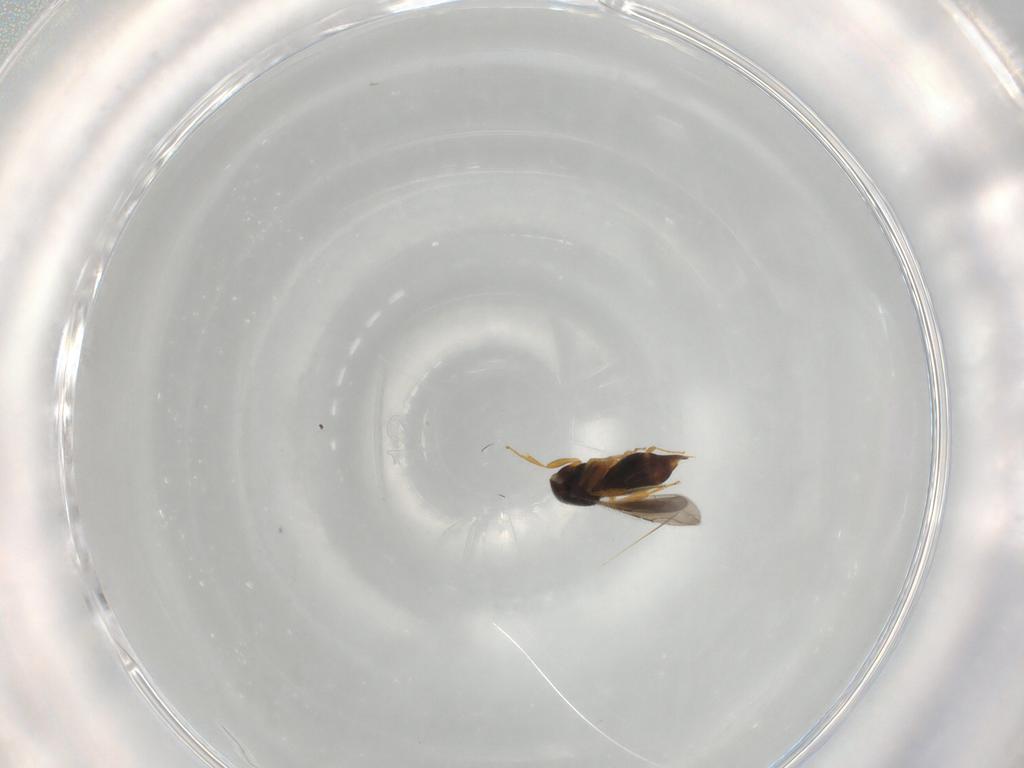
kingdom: Animalia
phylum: Arthropoda
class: Insecta
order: Hymenoptera
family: Ceraphronidae
